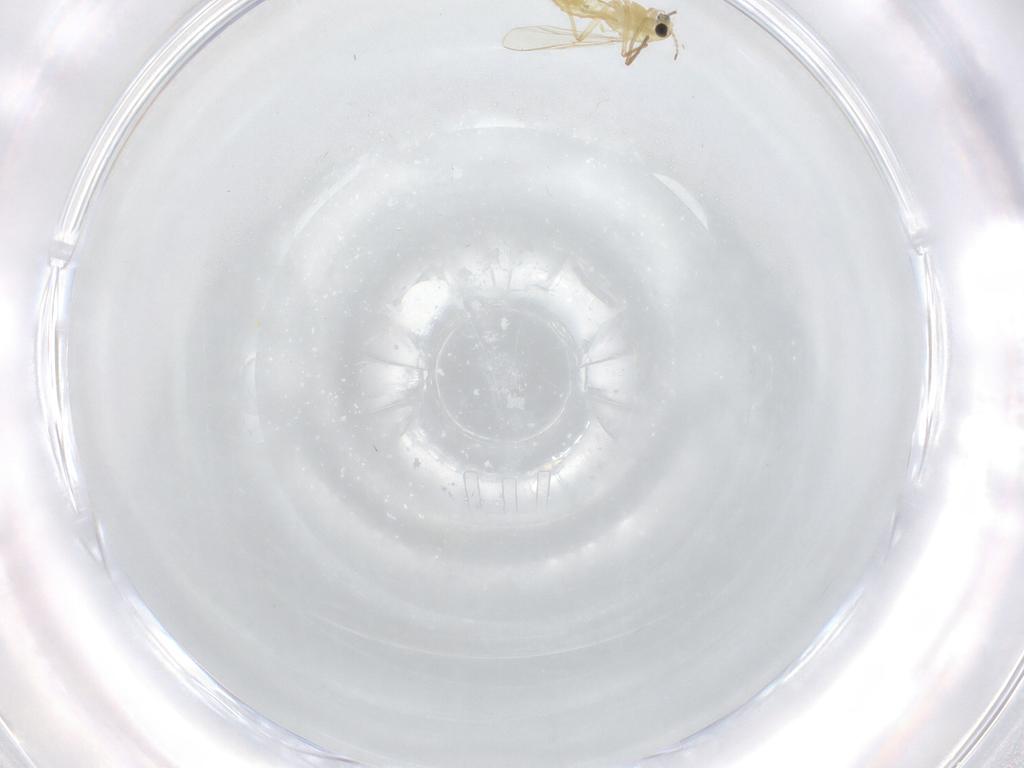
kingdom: Animalia
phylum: Arthropoda
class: Insecta
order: Diptera
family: Chironomidae
